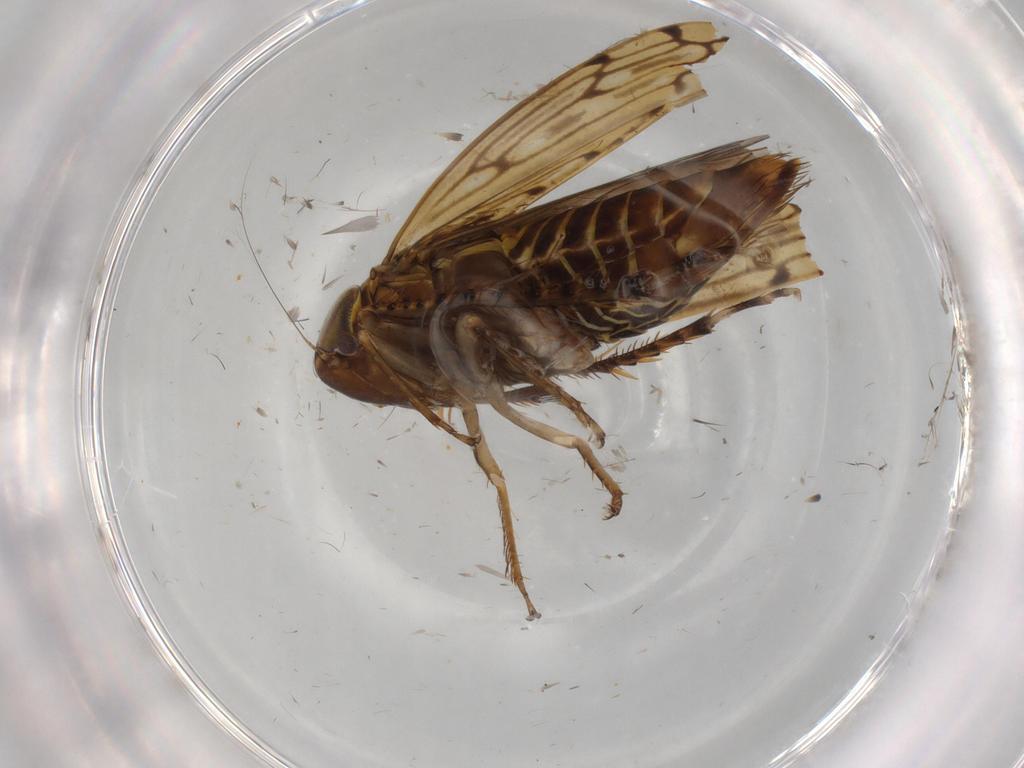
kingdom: Animalia
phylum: Arthropoda
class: Insecta
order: Hemiptera
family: Cicadellidae
